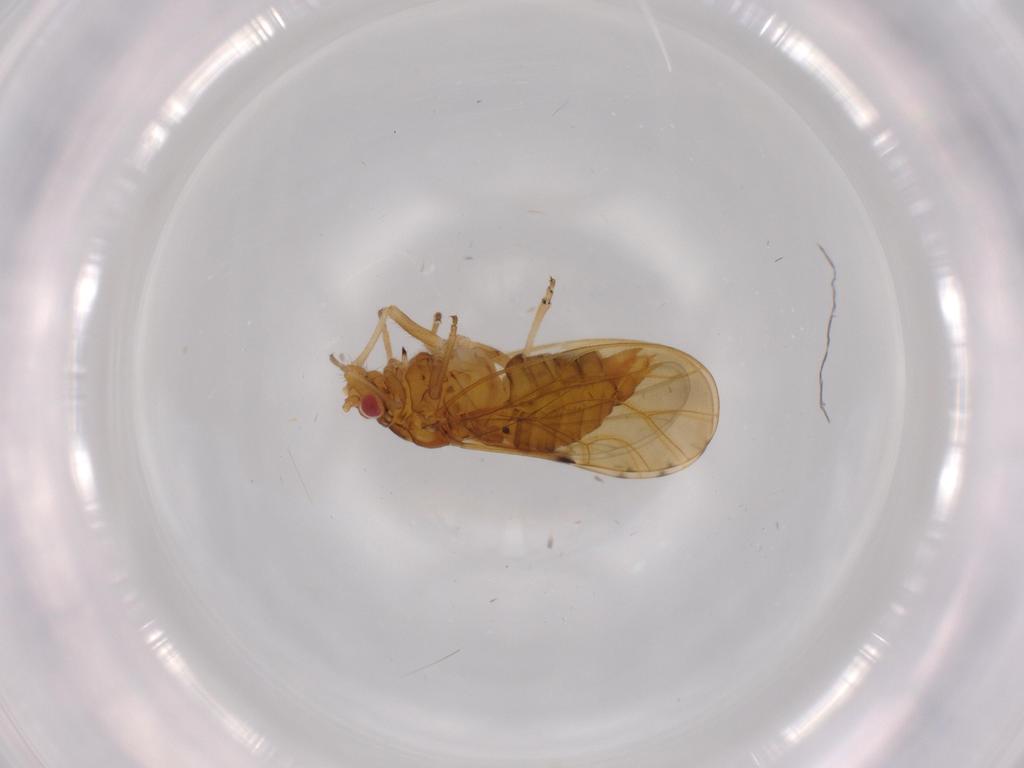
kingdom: Animalia
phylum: Arthropoda
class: Insecta
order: Hemiptera
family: Psylloidea_incertae_sedis
